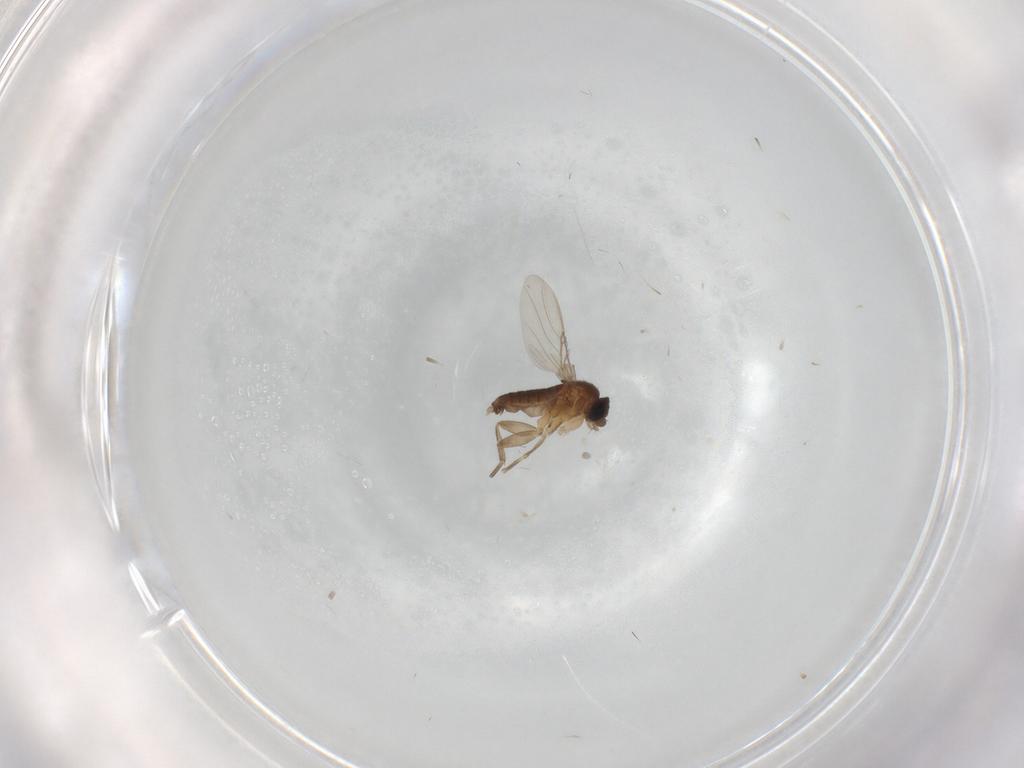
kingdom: Animalia
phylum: Arthropoda
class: Insecta
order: Diptera
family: Phoridae
